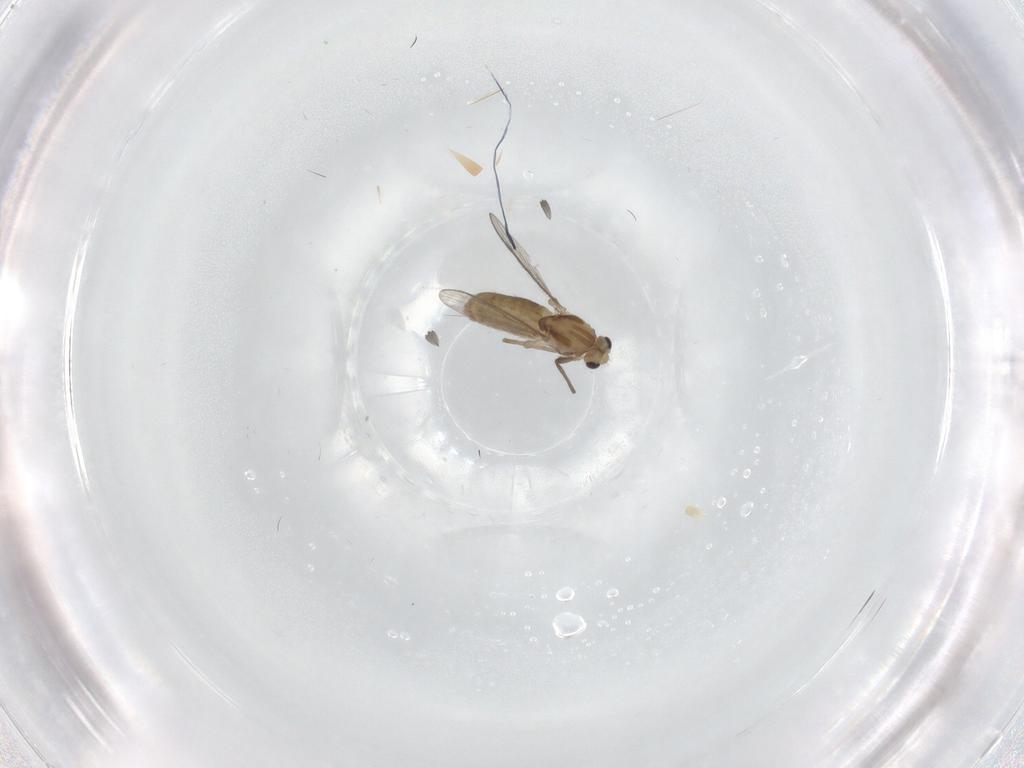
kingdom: Animalia
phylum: Arthropoda
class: Insecta
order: Diptera
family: Chironomidae
